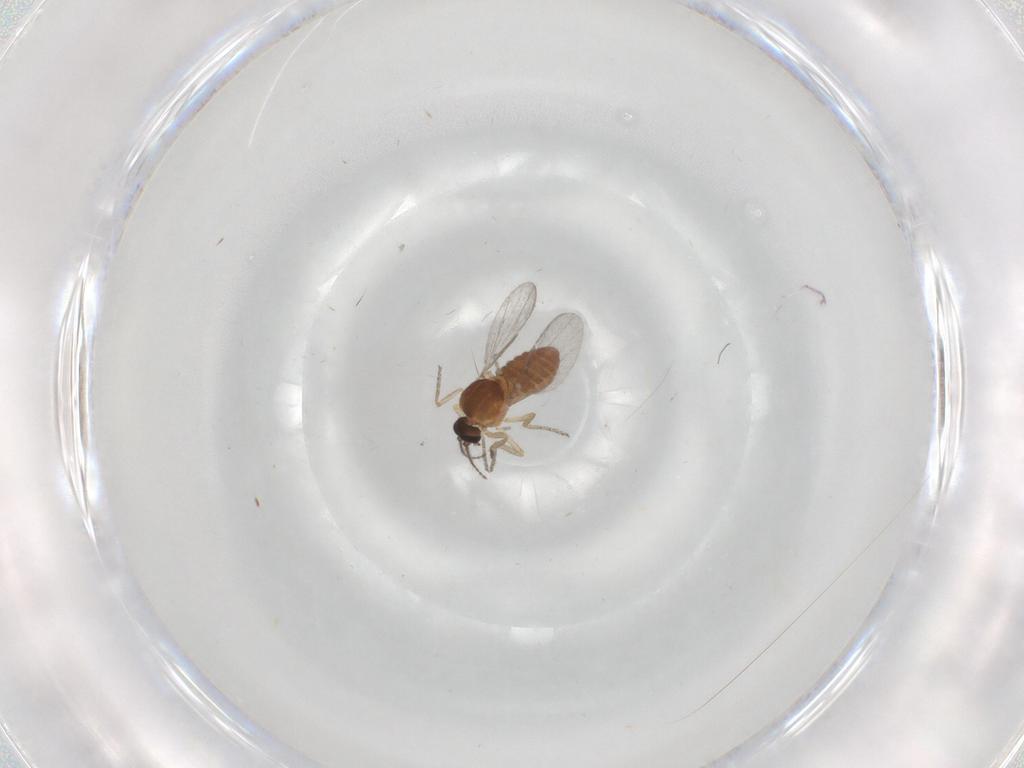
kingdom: Animalia
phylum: Arthropoda
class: Insecta
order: Diptera
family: Ceratopogonidae
